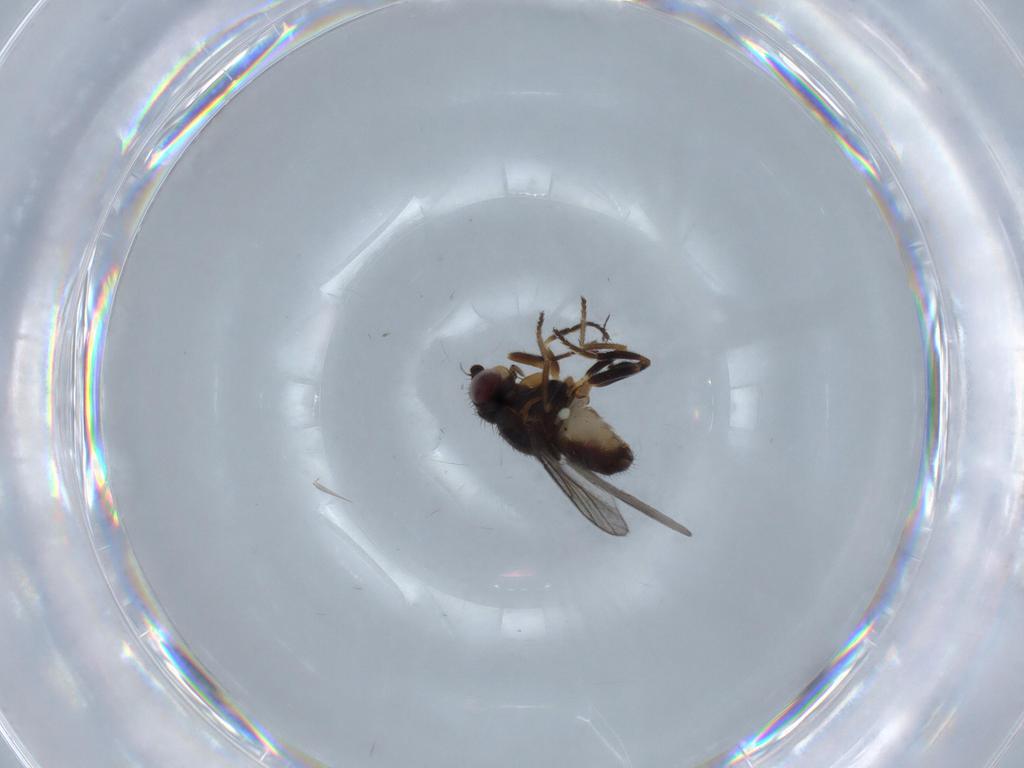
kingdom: Animalia
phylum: Arthropoda
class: Insecta
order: Diptera
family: Chloropidae
